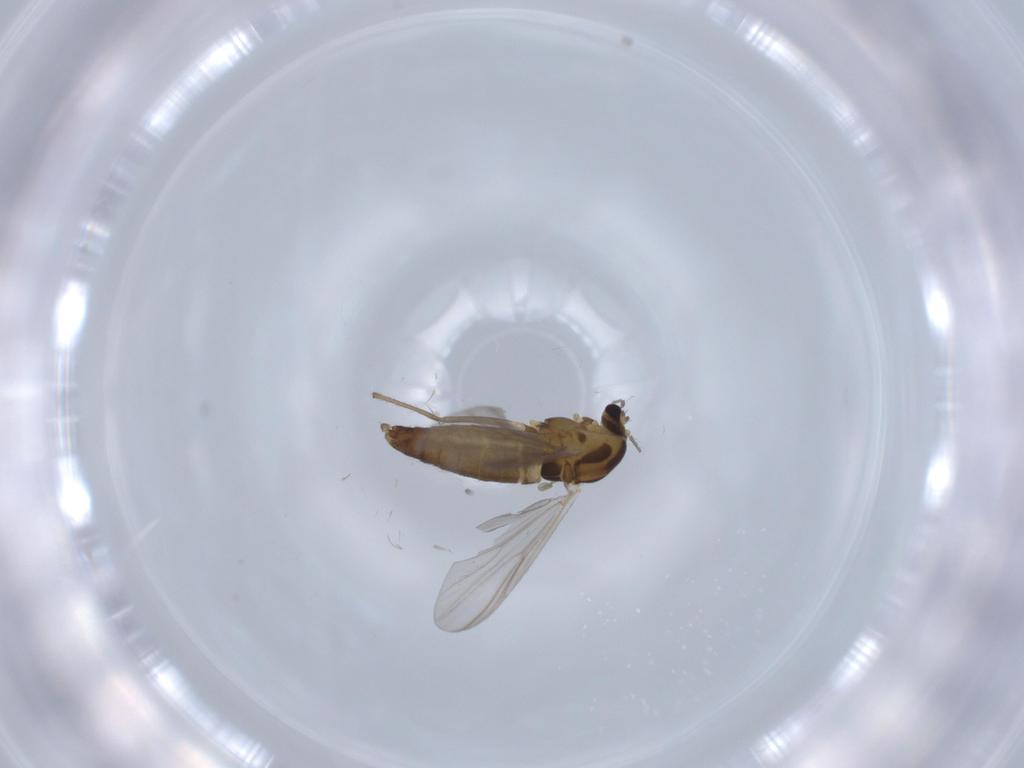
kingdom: Animalia
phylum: Arthropoda
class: Insecta
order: Diptera
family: Chironomidae
